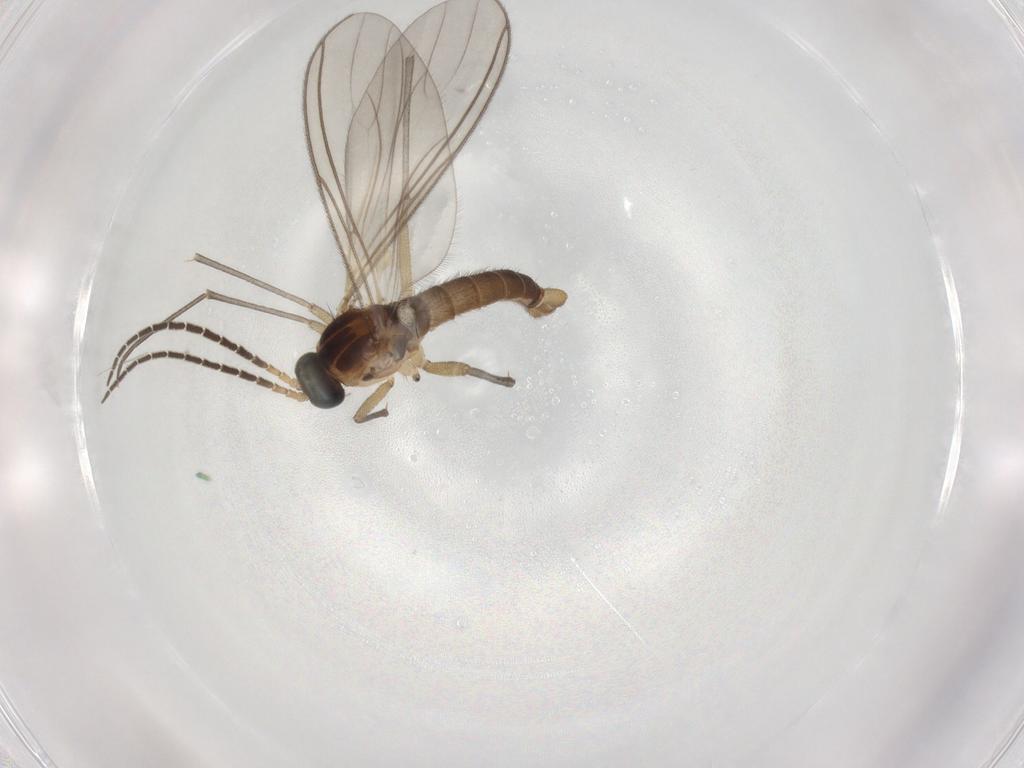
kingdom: Animalia
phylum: Arthropoda
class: Insecta
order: Diptera
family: Sciaridae
